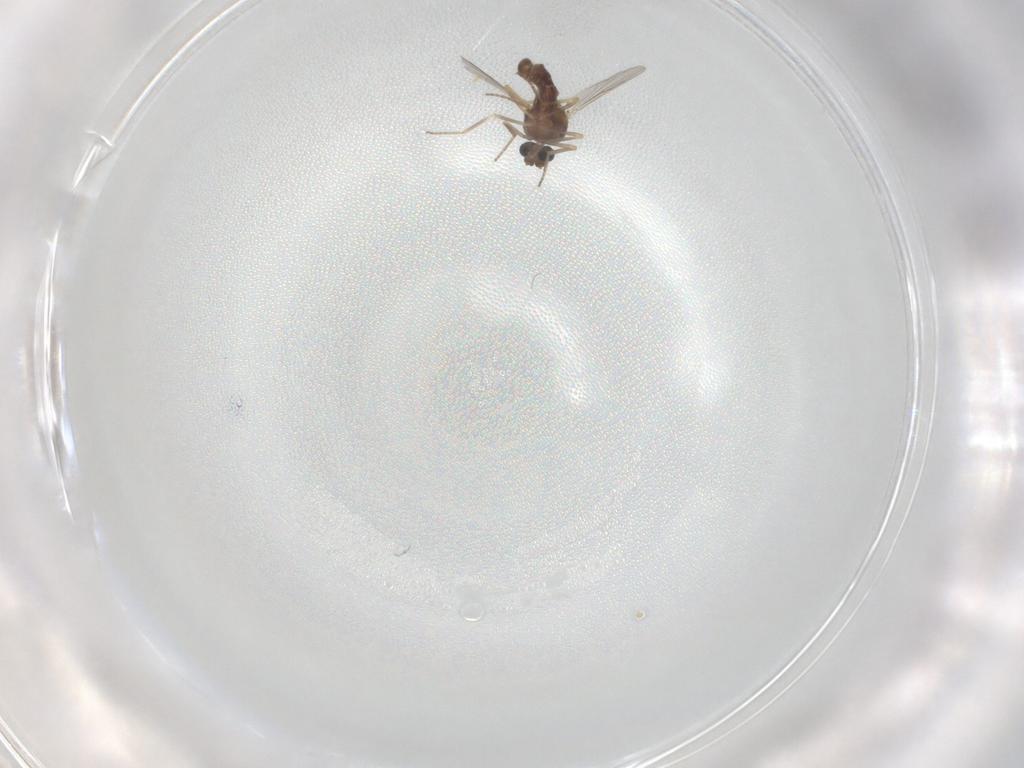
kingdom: Animalia
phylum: Arthropoda
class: Insecta
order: Diptera
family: Ceratopogonidae
